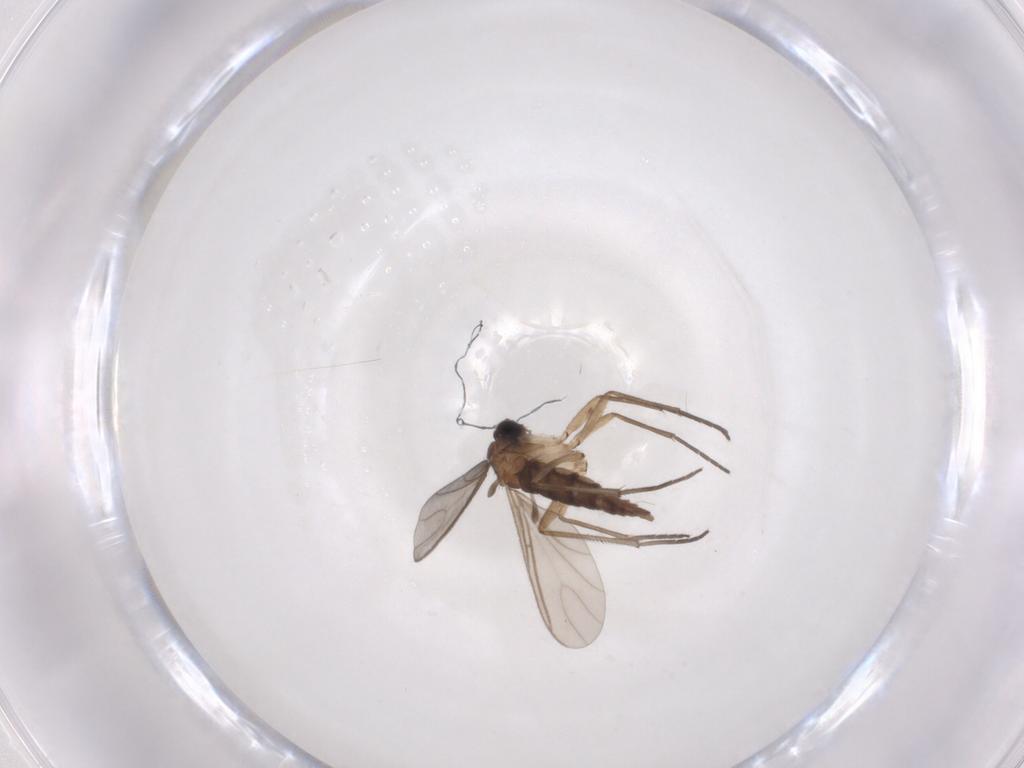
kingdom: Animalia
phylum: Arthropoda
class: Insecta
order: Diptera
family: Sciaridae
